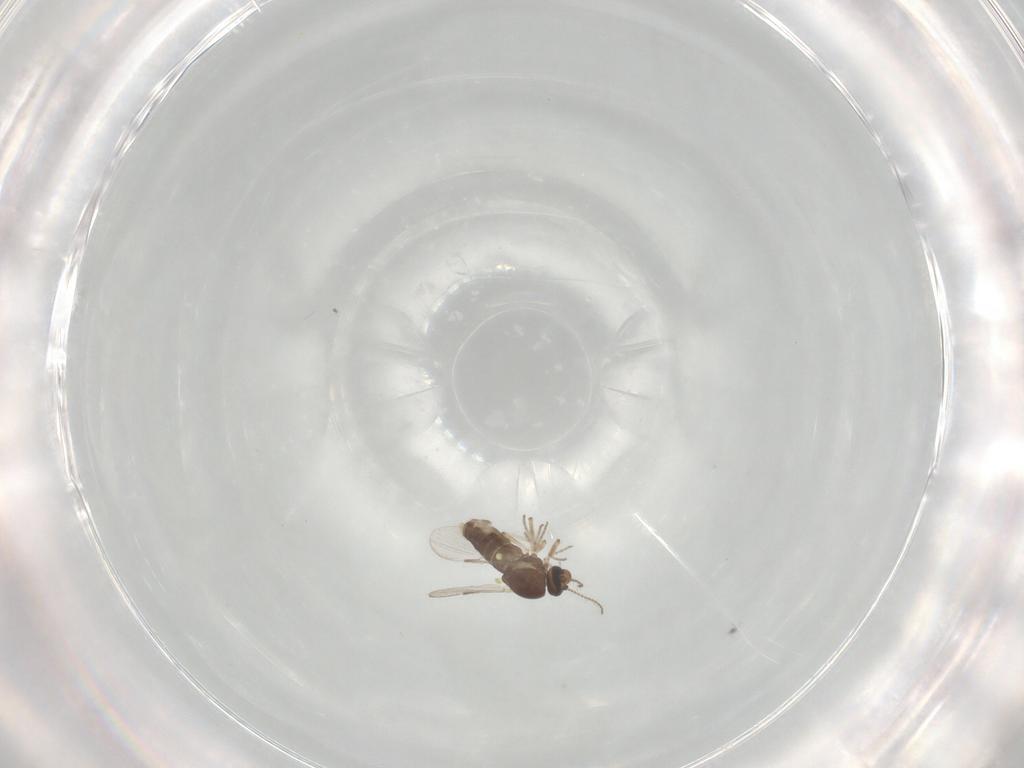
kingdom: Animalia
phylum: Arthropoda
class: Insecta
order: Diptera
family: Ceratopogonidae
